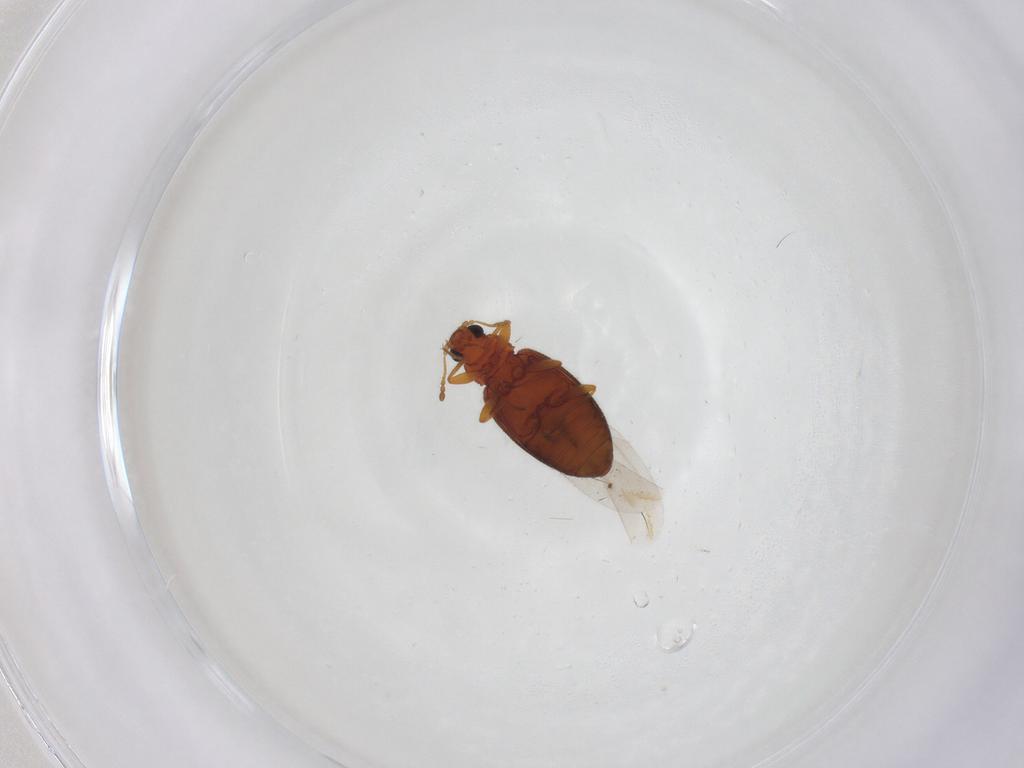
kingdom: Animalia
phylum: Arthropoda
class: Insecta
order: Coleoptera
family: Latridiidae
